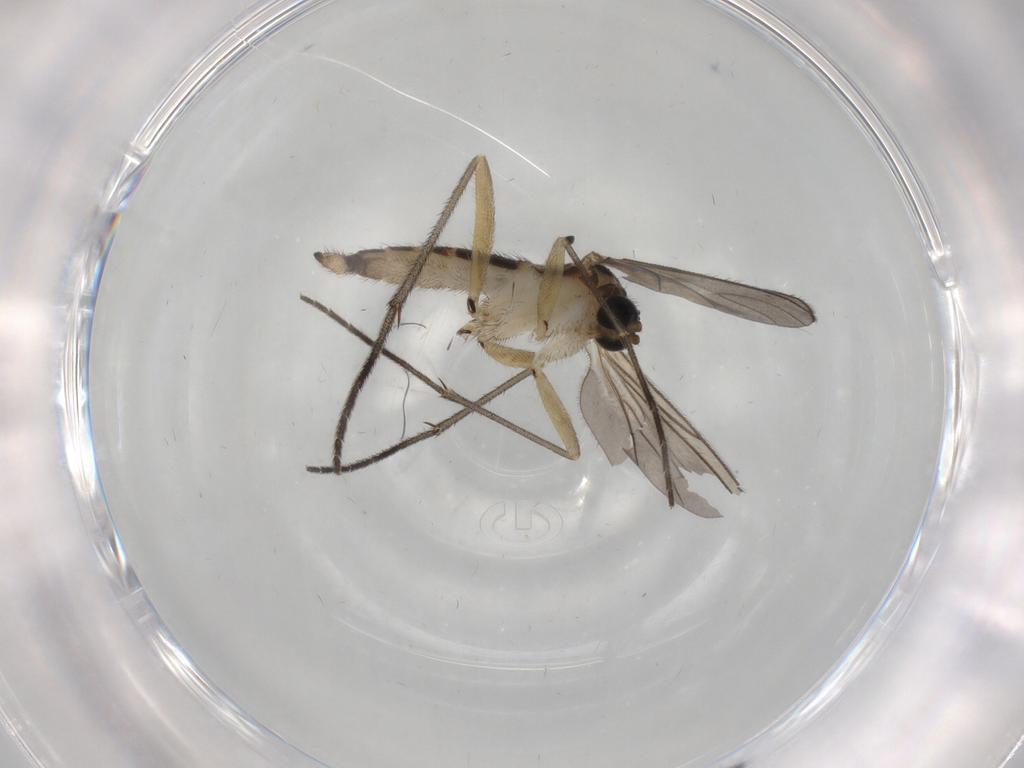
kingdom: Animalia
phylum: Arthropoda
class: Insecta
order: Diptera
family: Sciaridae
